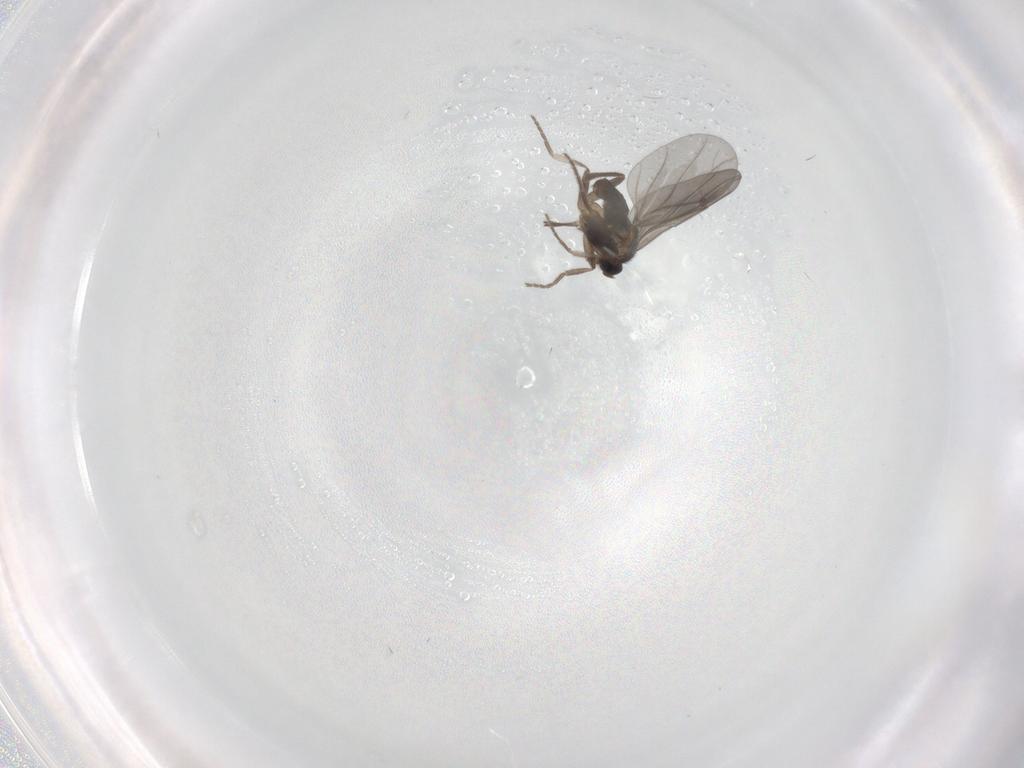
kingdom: Animalia
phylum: Arthropoda
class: Insecta
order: Diptera
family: Phoridae
